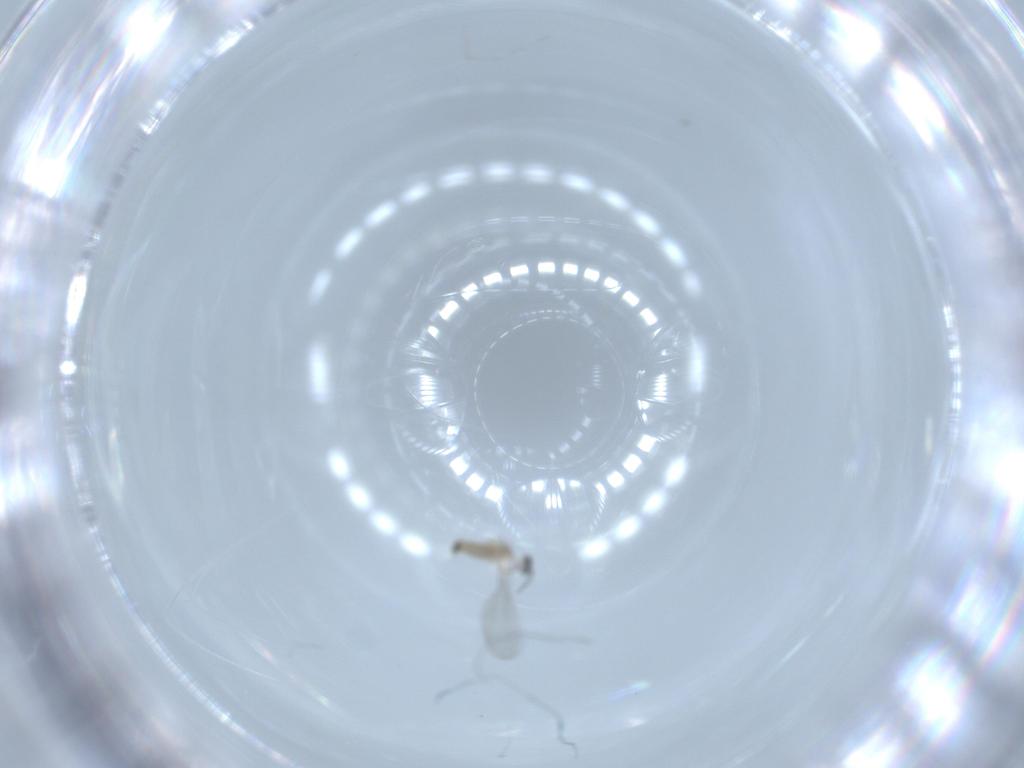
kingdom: Animalia
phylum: Arthropoda
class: Insecta
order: Diptera
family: Cecidomyiidae
